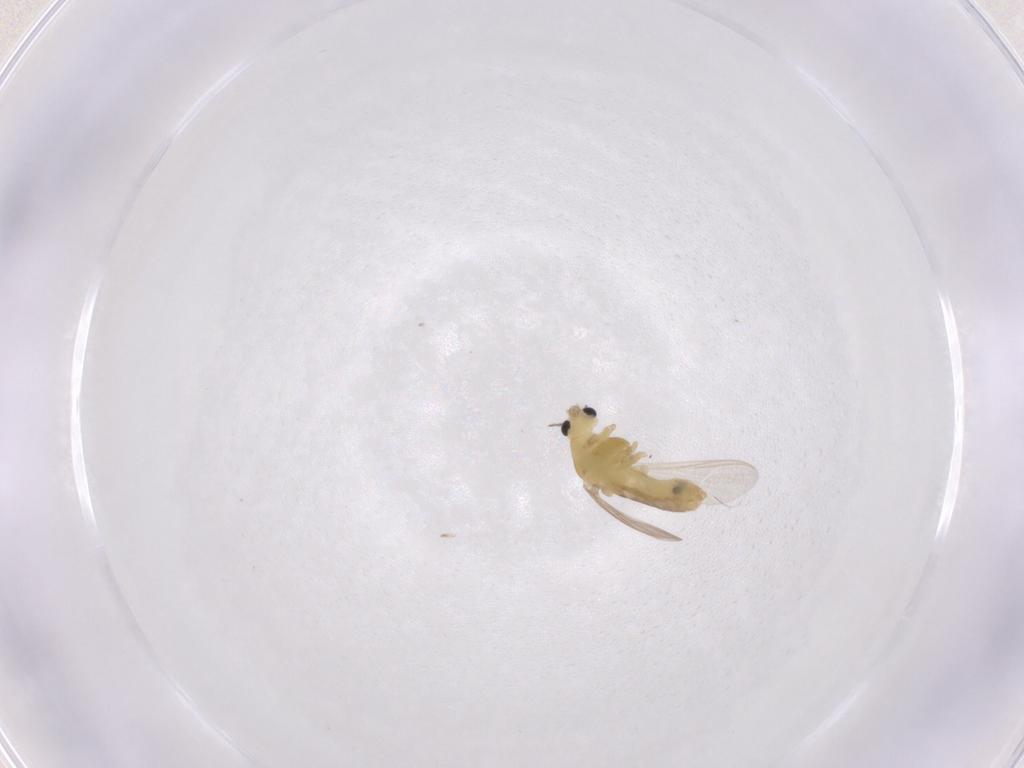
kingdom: Animalia
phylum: Arthropoda
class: Insecta
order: Diptera
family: Chironomidae
